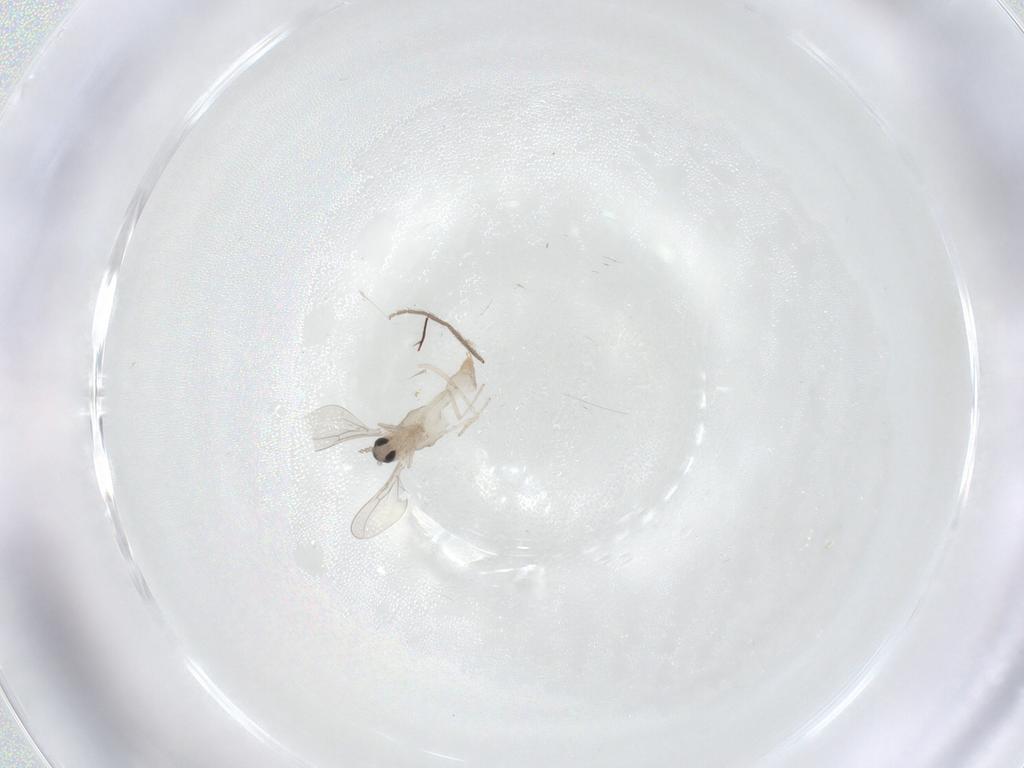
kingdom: Animalia
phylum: Arthropoda
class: Insecta
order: Diptera
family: Cecidomyiidae
